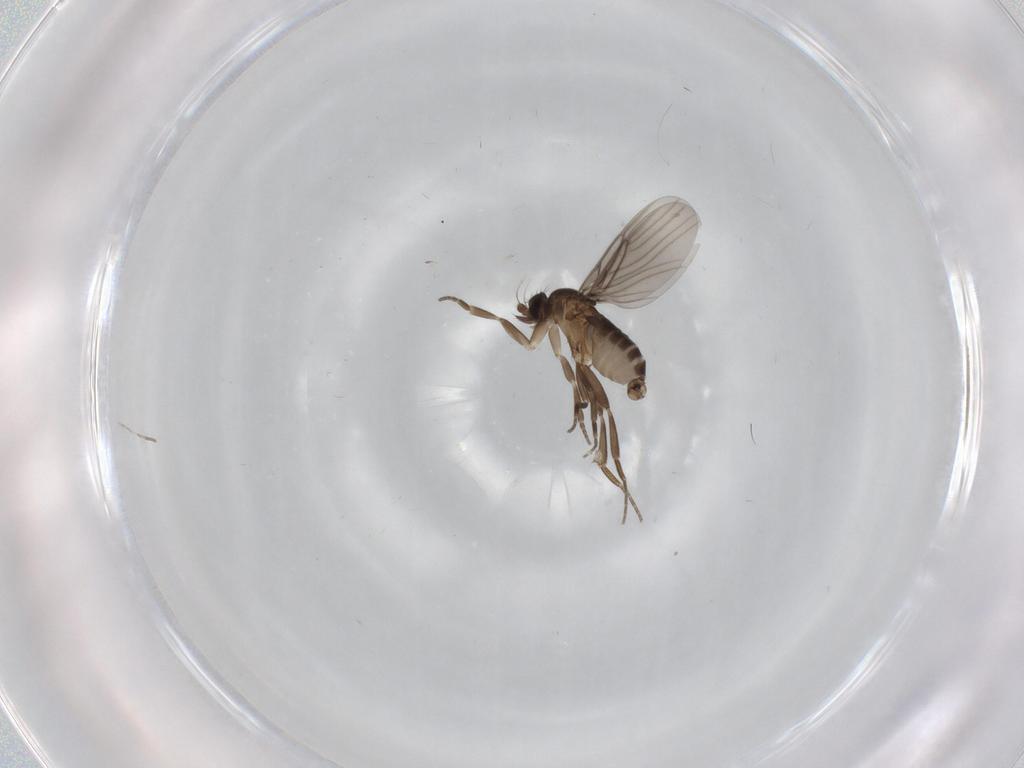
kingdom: Animalia
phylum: Arthropoda
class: Insecta
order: Diptera
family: Phoridae
